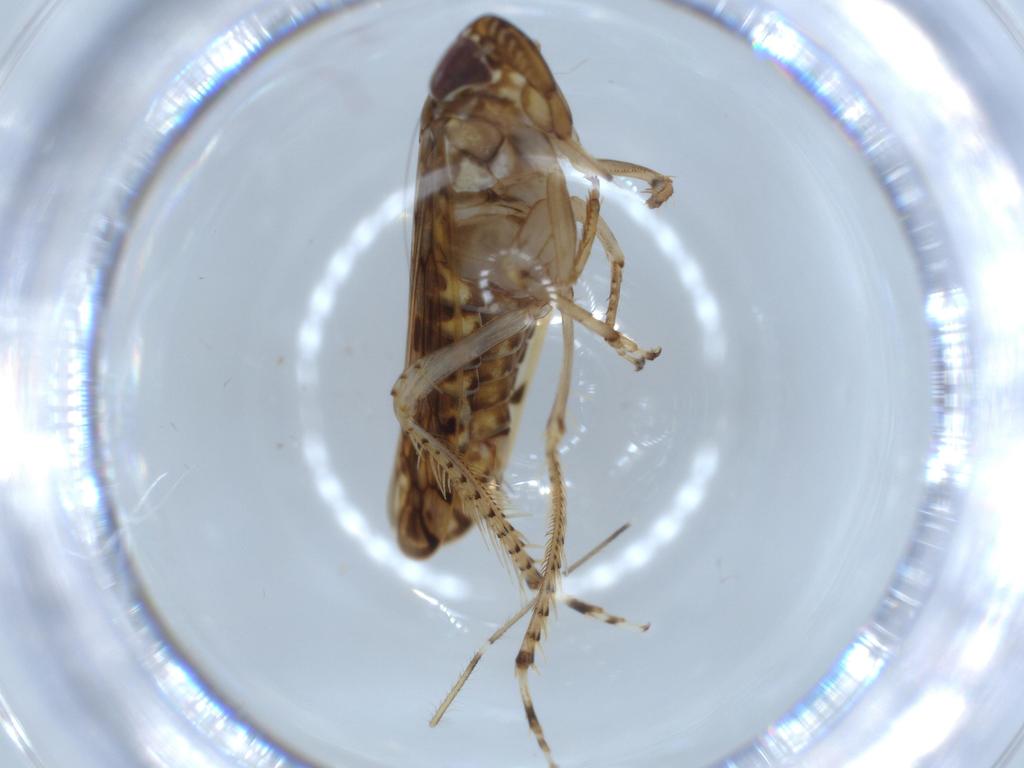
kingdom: Animalia
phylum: Arthropoda
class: Insecta
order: Hemiptera
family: Cicadellidae
